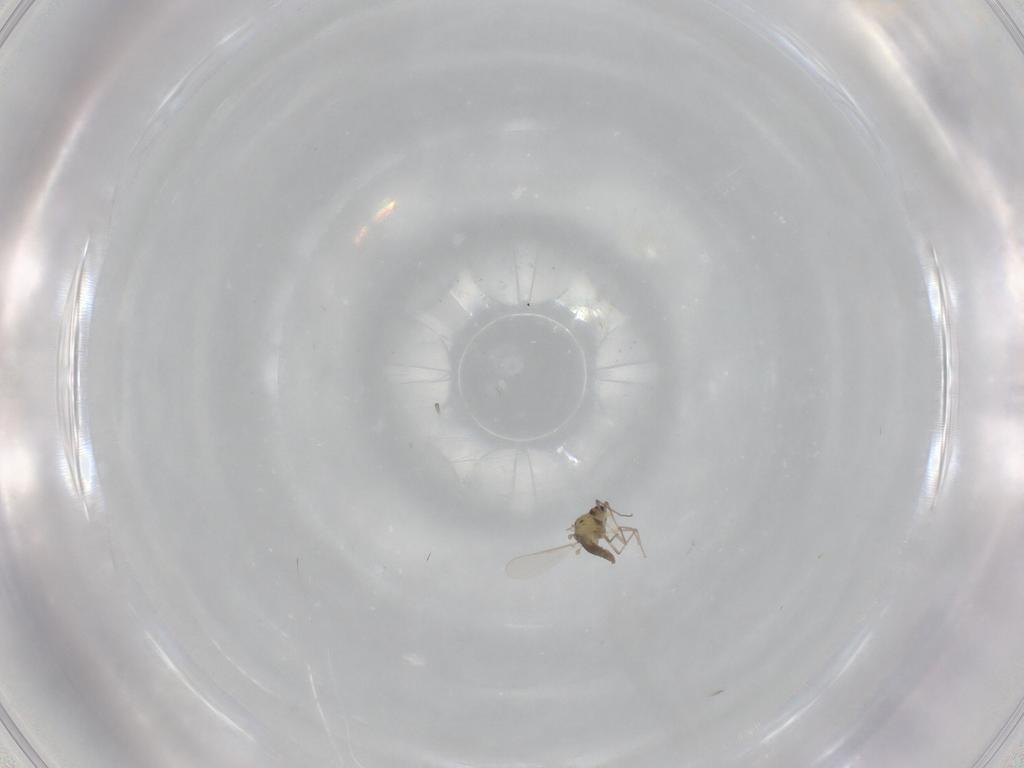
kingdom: Animalia
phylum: Arthropoda
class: Insecta
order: Diptera
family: Chironomidae
